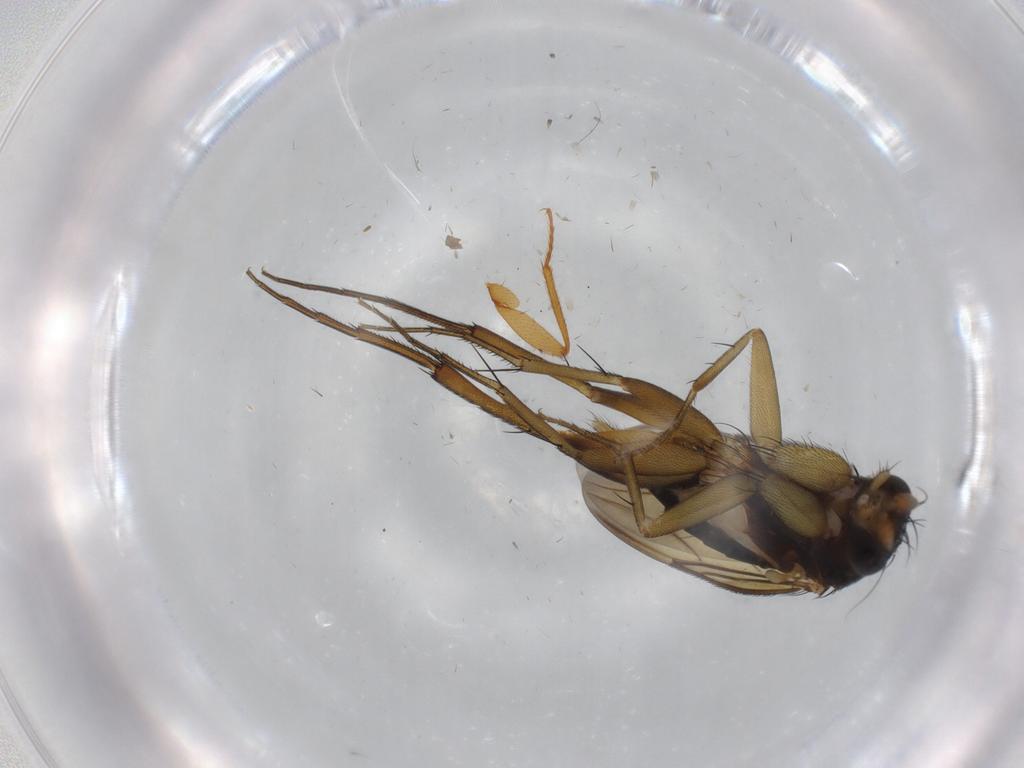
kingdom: Animalia
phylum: Arthropoda
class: Insecta
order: Diptera
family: Phoridae
